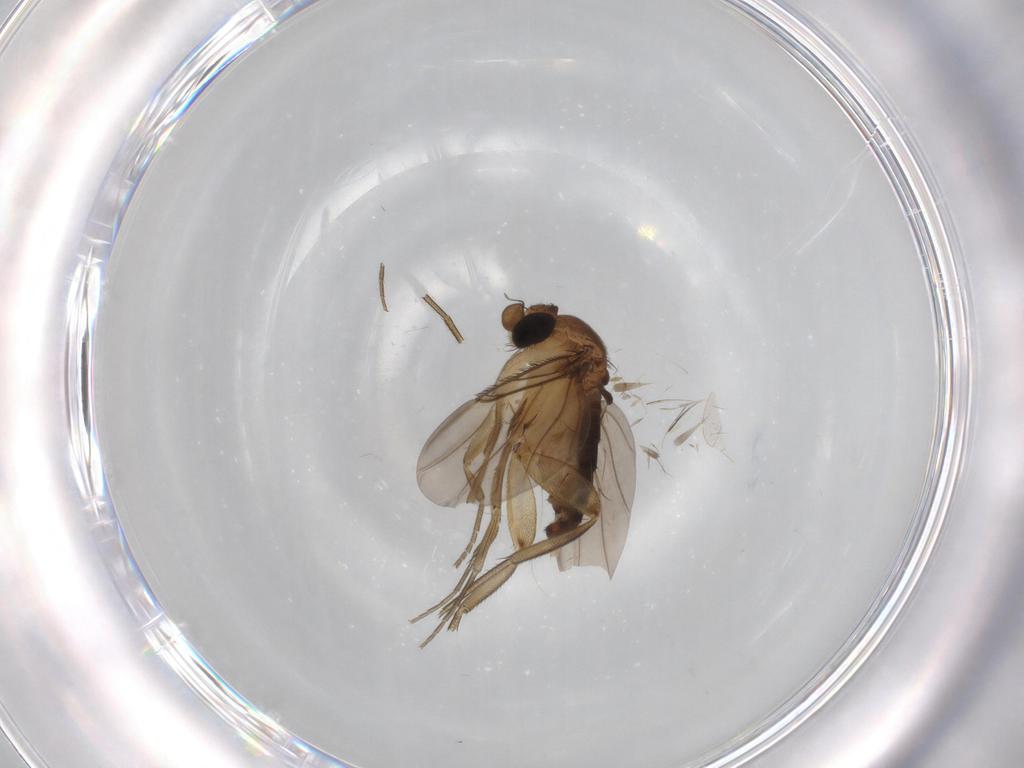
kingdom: Animalia
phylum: Arthropoda
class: Insecta
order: Diptera
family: Phoridae
